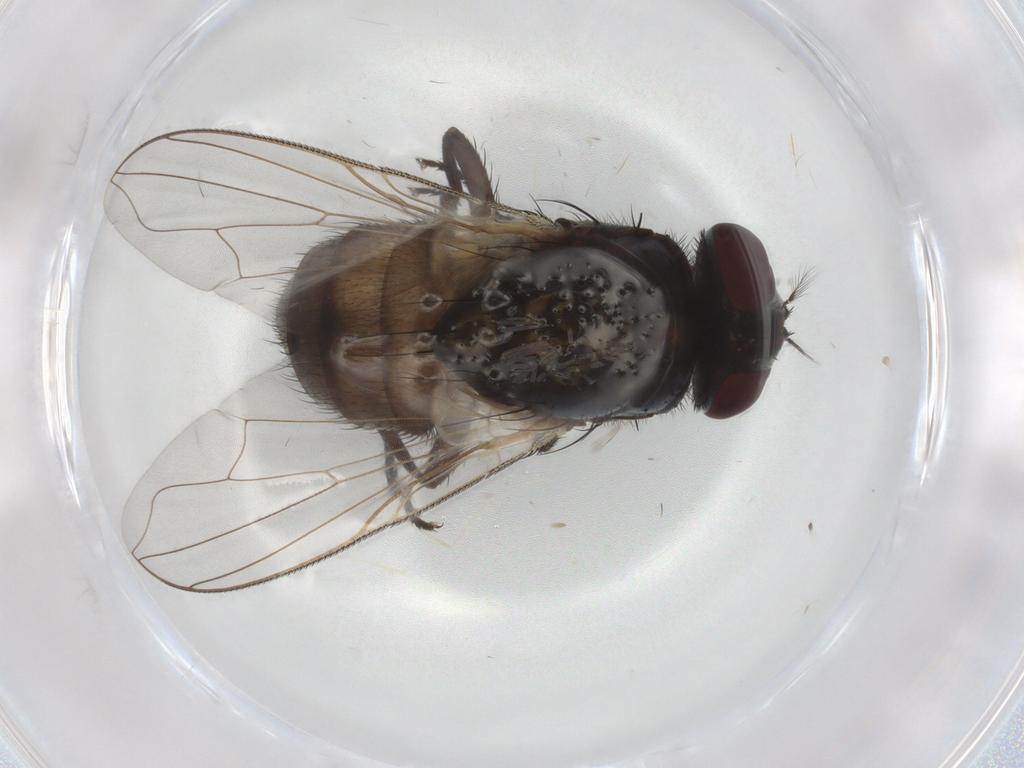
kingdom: Animalia
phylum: Arthropoda
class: Insecta
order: Diptera
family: Muscidae
